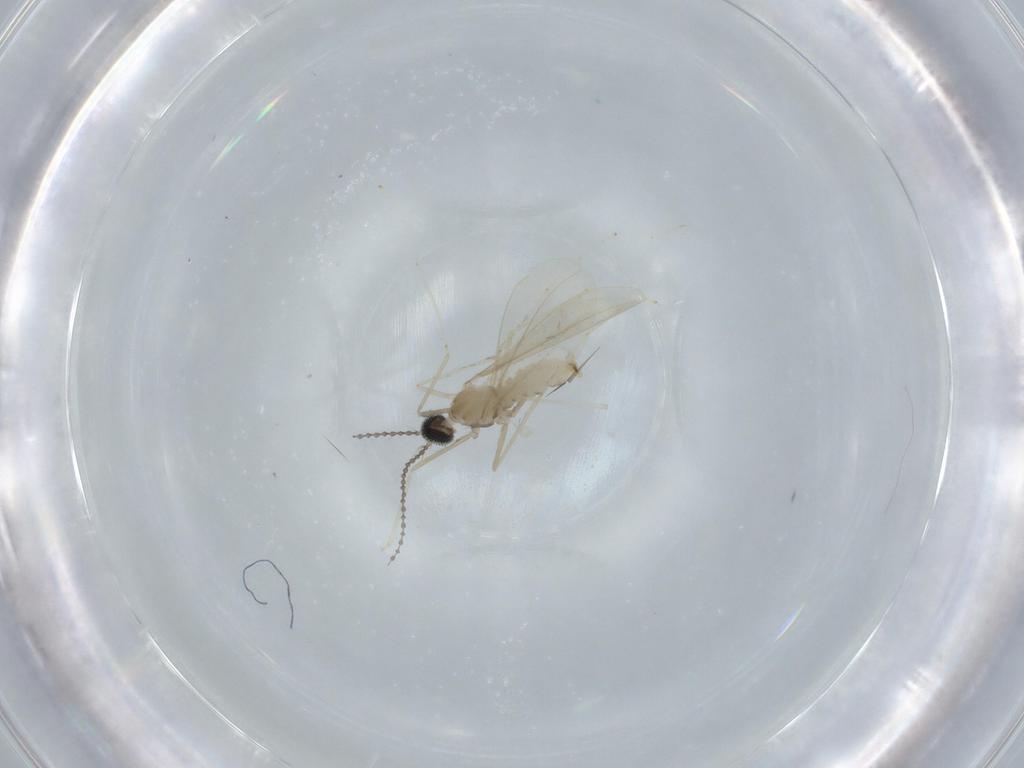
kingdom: Animalia
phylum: Arthropoda
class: Insecta
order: Diptera
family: Cecidomyiidae
